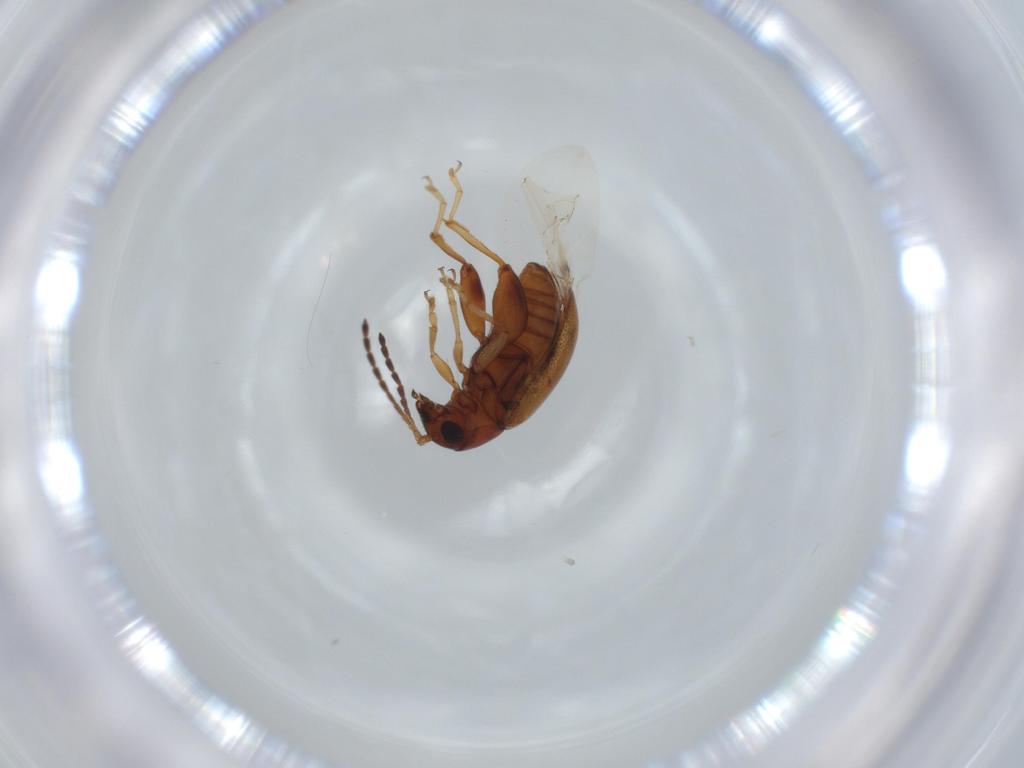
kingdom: Animalia
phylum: Arthropoda
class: Insecta
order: Coleoptera
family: Chrysomelidae
